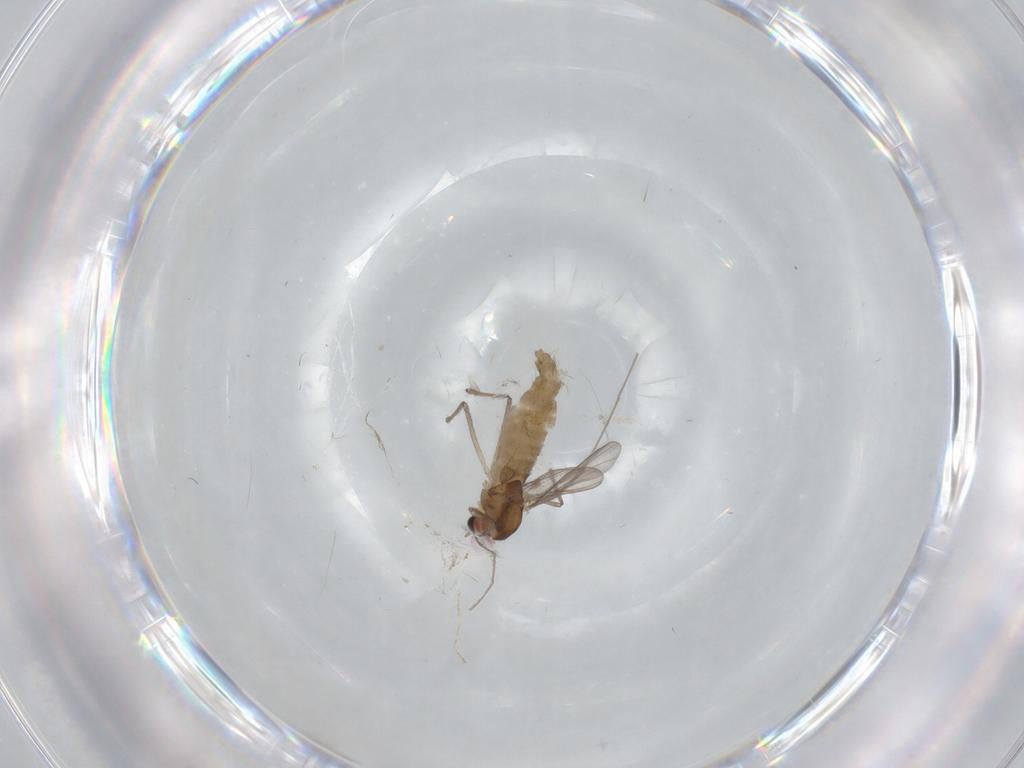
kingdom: Animalia
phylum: Arthropoda
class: Insecta
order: Diptera
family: Chironomidae
